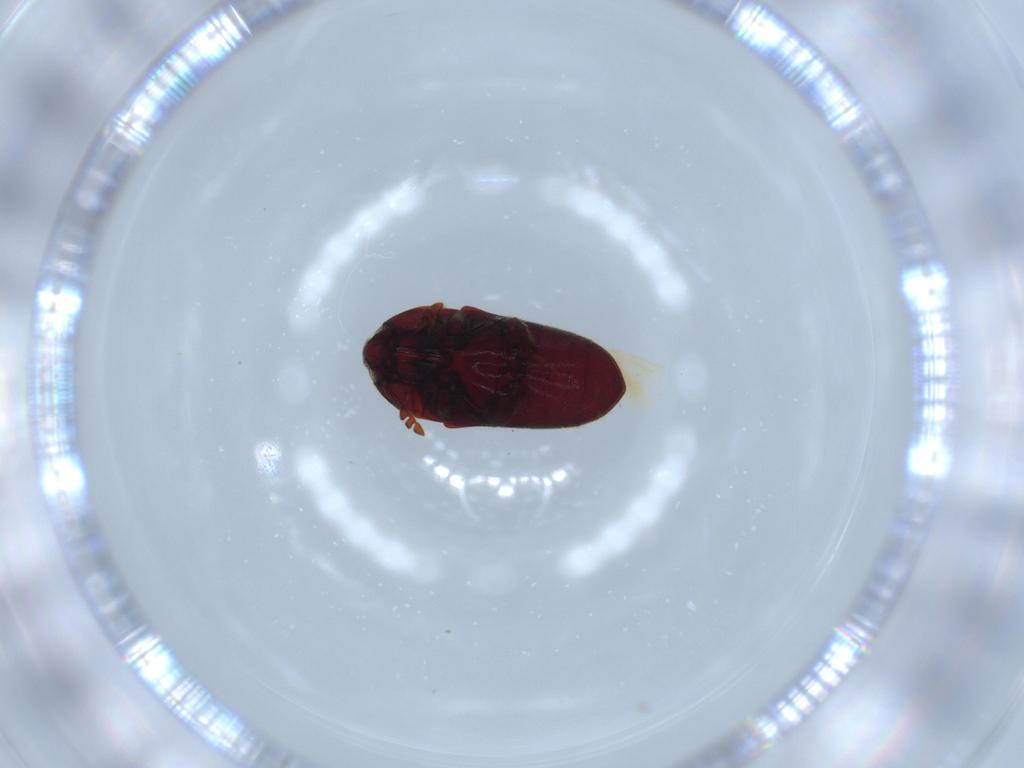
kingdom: Animalia
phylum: Arthropoda
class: Insecta
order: Coleoptera
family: Throscidae
